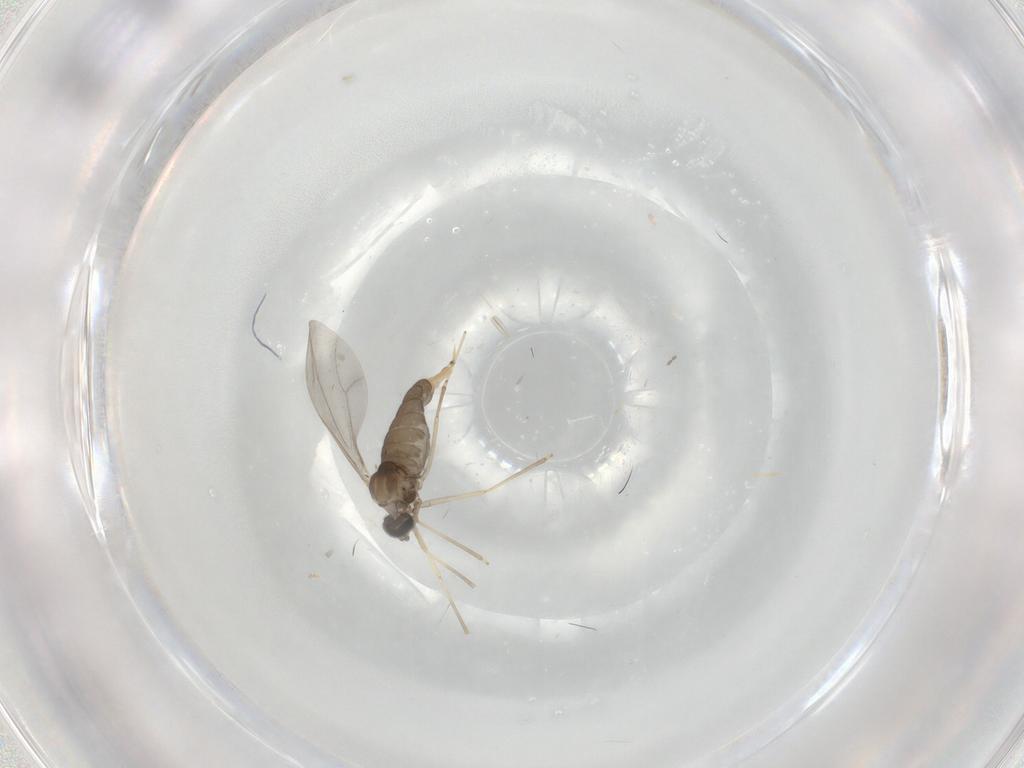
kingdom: Animalia
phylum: Arthropoda
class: Insecta
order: Diptera
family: Cecidomyiidae
